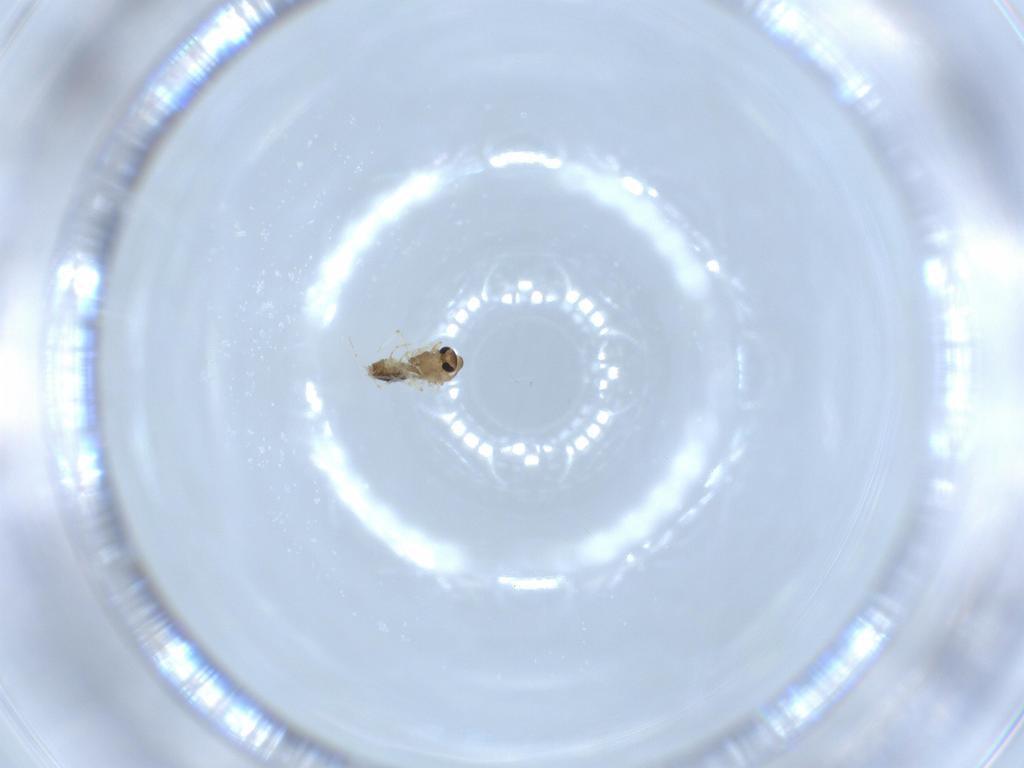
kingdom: Animalia
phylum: Arthropoda
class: Insecta
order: Diptera
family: Chironomidae
